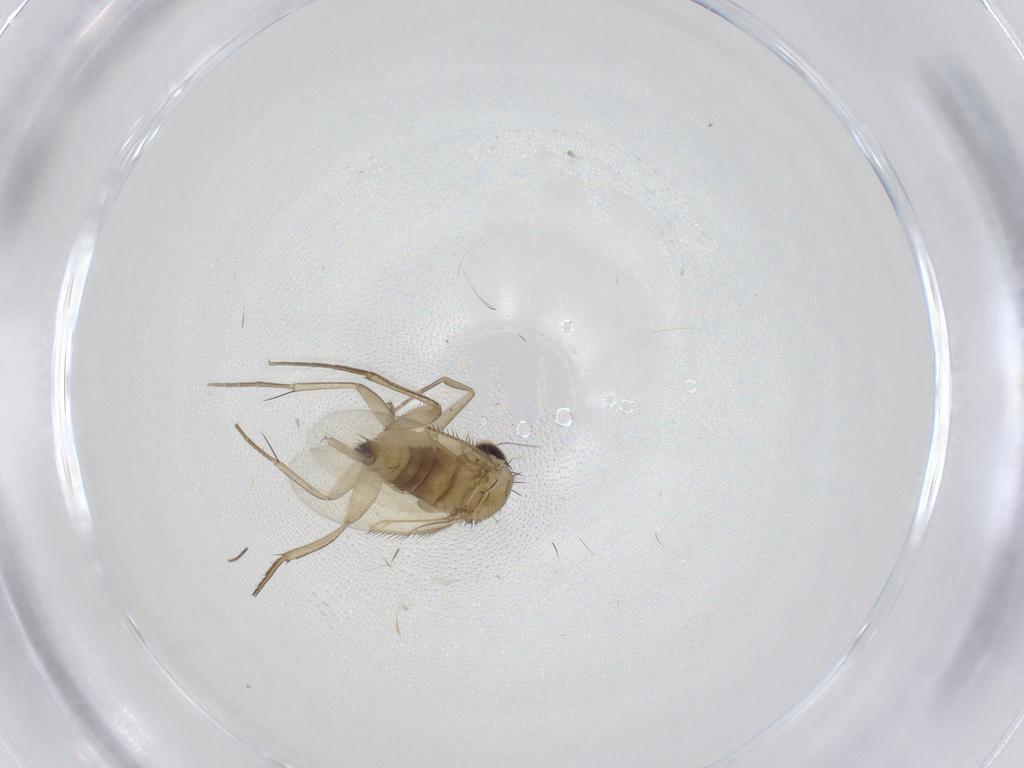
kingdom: Animalia
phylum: Arthropoda
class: Insecta
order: Diptera
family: Phoridae
